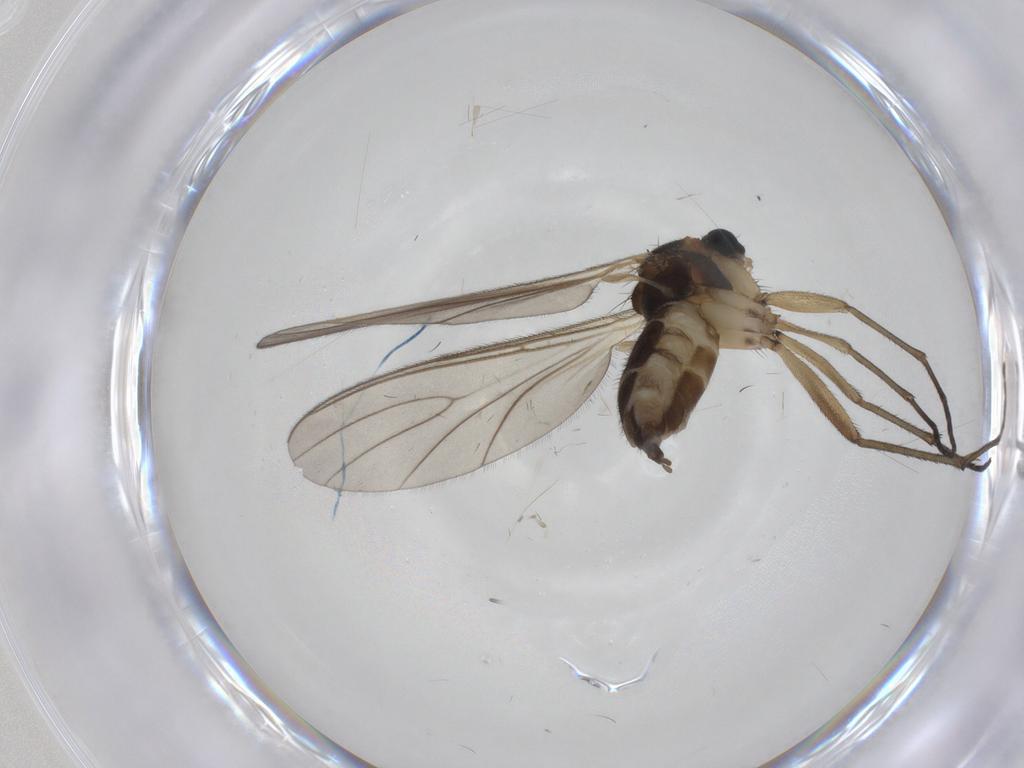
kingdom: Animalia
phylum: Arthropoda
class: Insecta
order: Diptera
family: Sciaridae
